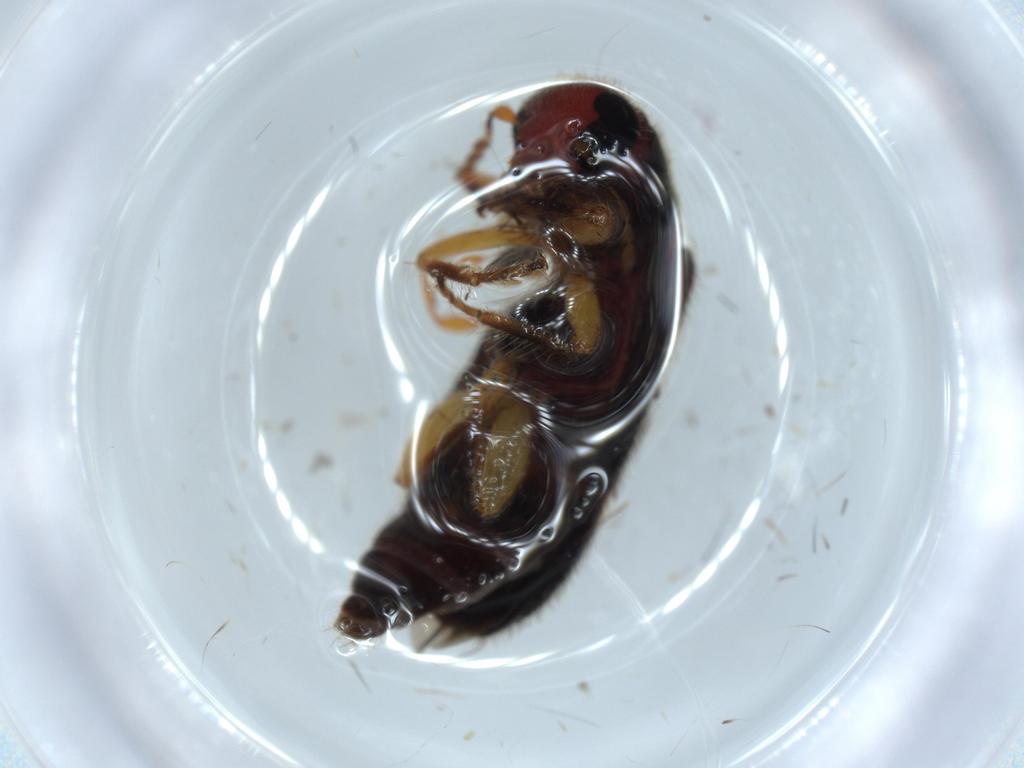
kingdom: Animalia
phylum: Arthropoda
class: Insecta
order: Coleoptera
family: Cleridae
